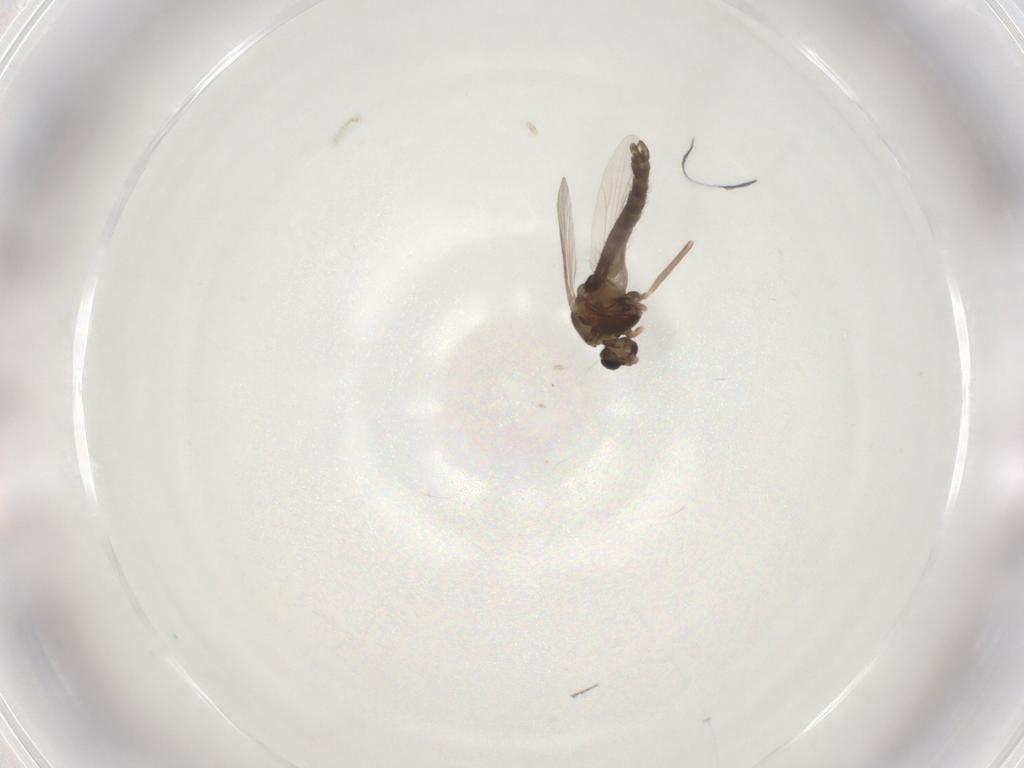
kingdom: Animalia
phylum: Arthropoda
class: Insecta
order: Diptera
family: Chironomidae
